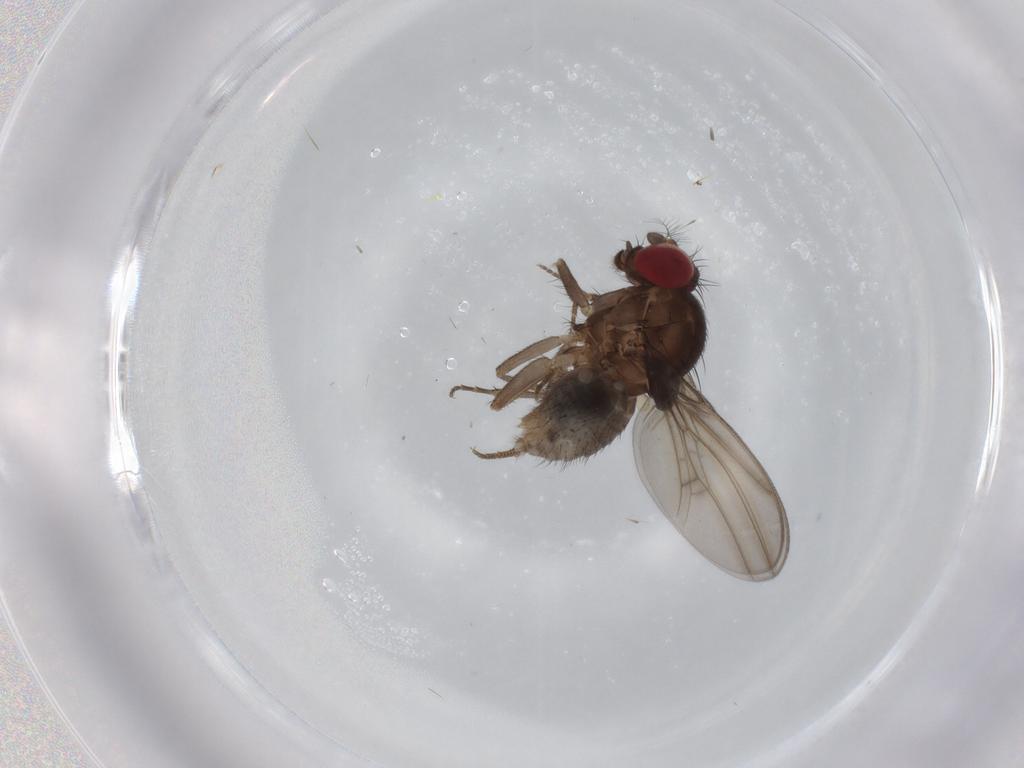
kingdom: Animalia
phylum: Arthropoda
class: Insecta
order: Diptera
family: Drosophilidae
